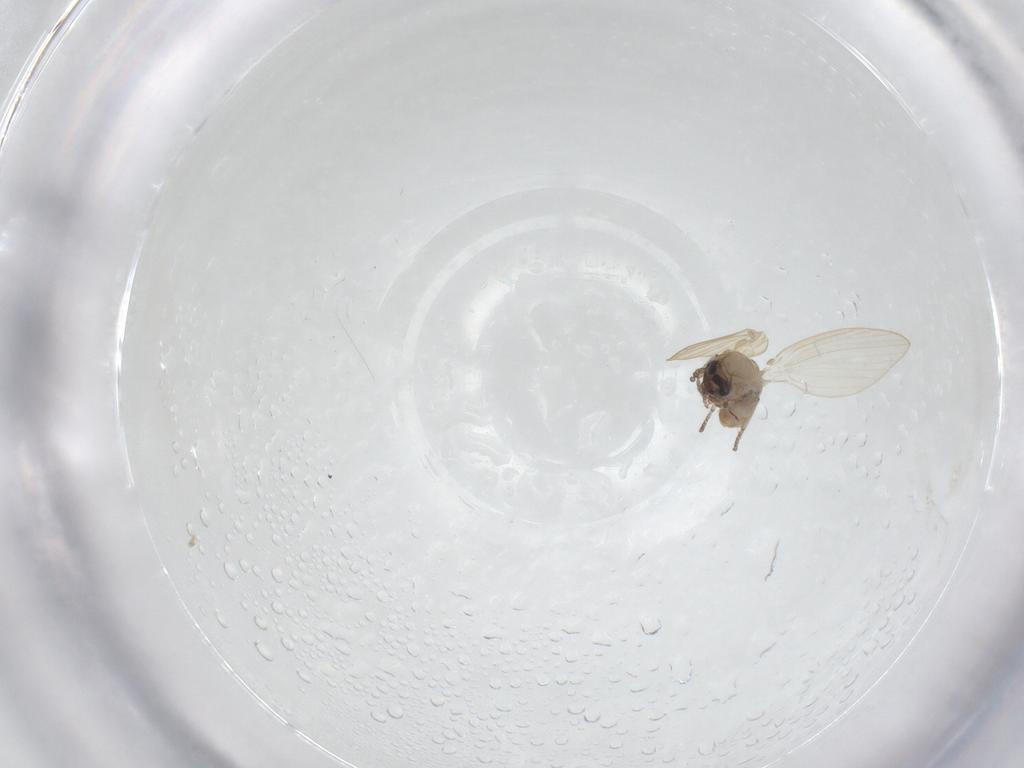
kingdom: Animalia
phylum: Arthropoda
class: Insecta
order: Diptera
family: Psychodidae
